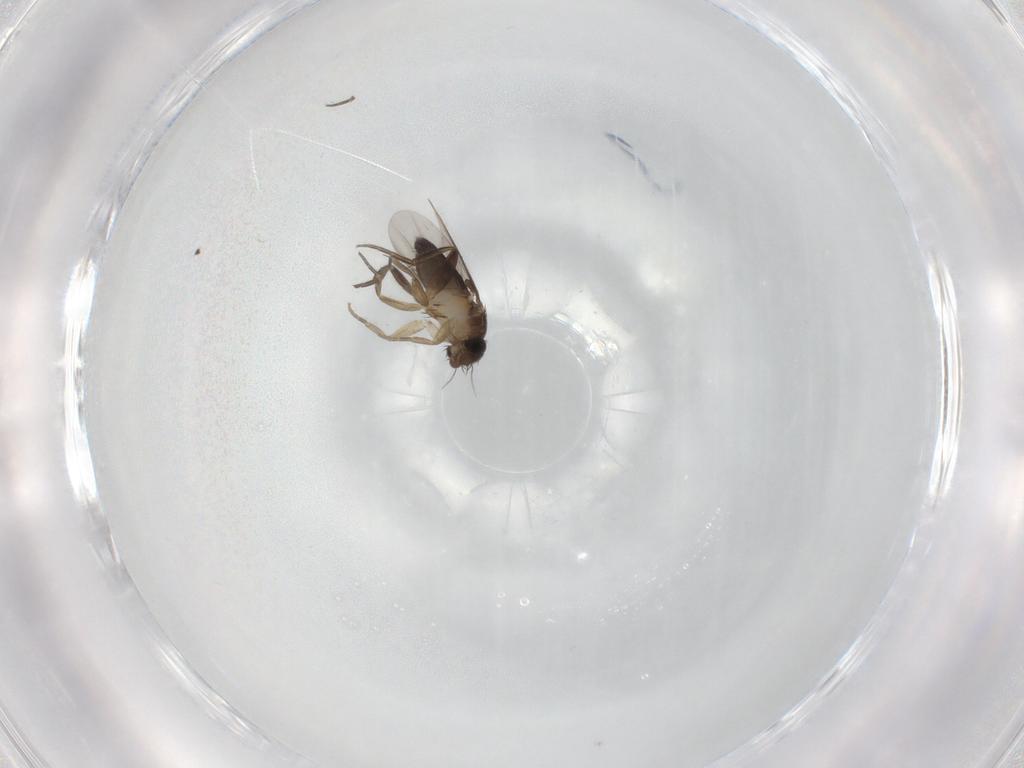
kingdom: Animalia
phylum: Arthropoda
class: Insecta
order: Diptera
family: Phoridae
